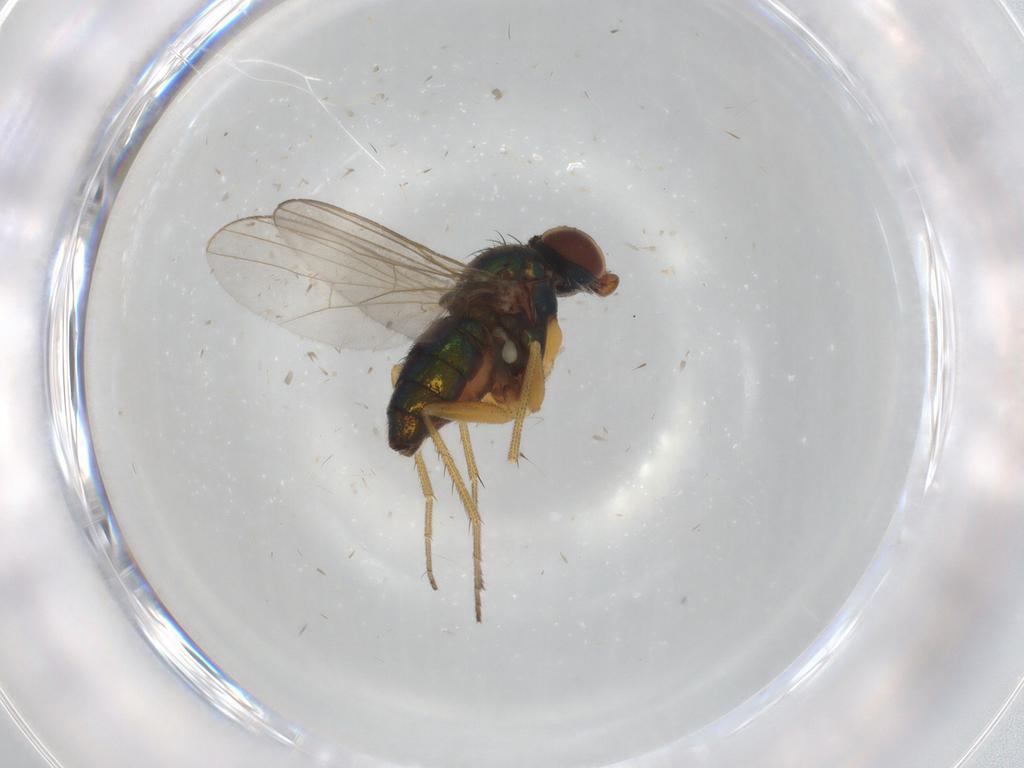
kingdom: Animalia
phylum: Arthropoda
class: Insecta
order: Diptera
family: Dolichopodidae
